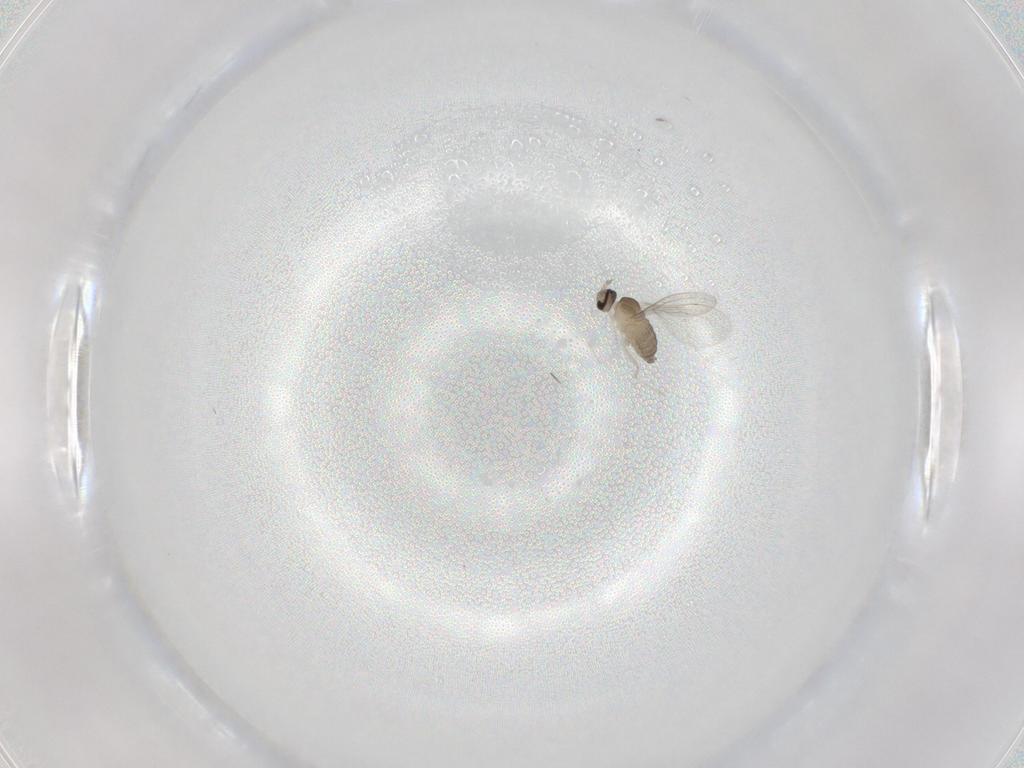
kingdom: Animalia
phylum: Arthropoda
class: Insecta
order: Diptera
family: Cecidomyiidae
